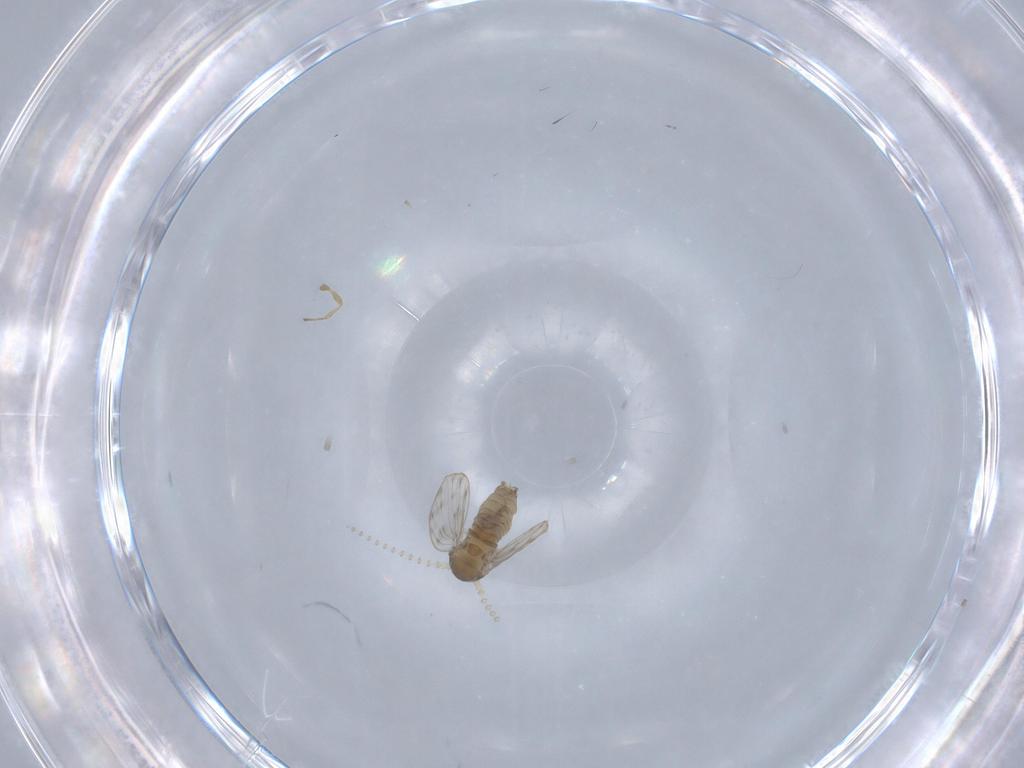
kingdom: Animalia
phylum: Arthropoda
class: Insecta
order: Diptera
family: Psychodidae
